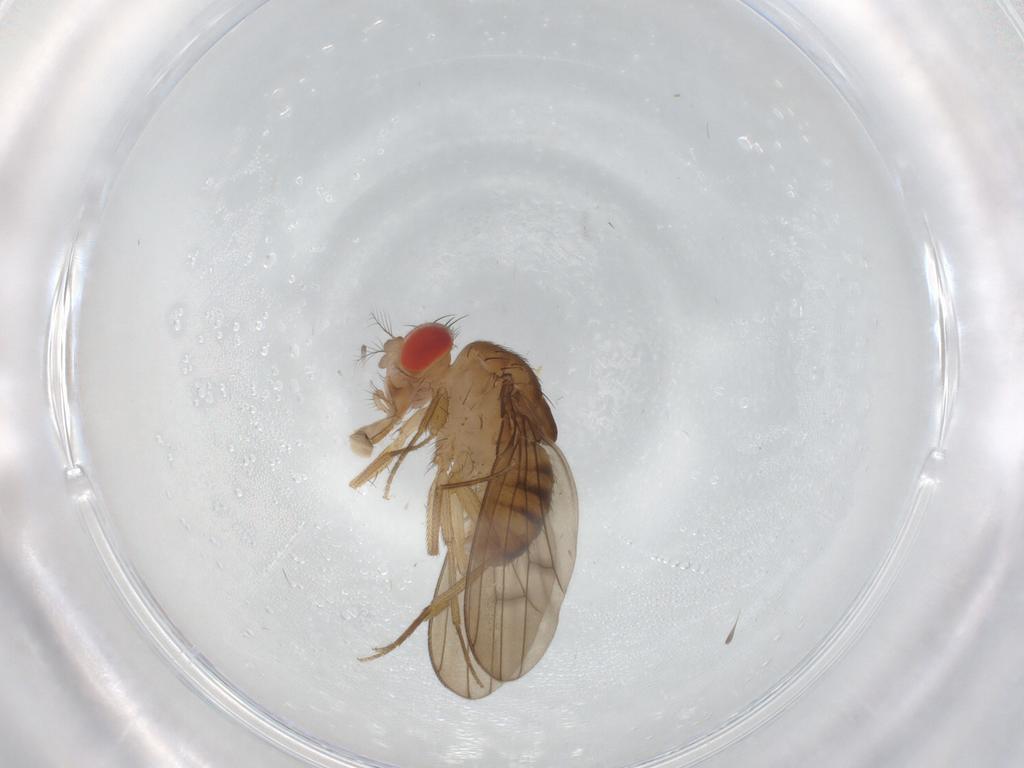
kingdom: Animalia
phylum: Arthropoda
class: Insecta
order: Diptera
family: Drosophilidae
